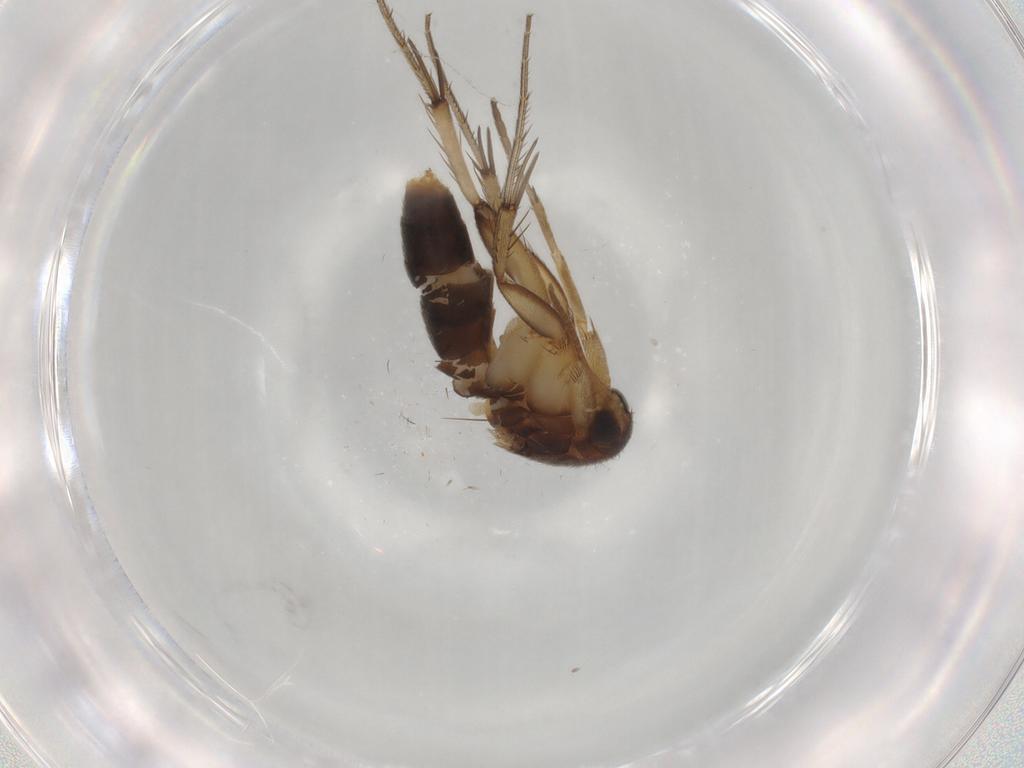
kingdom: Animalia
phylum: Arthropoda
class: Insecta
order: Diptera
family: Mycetophilidae
